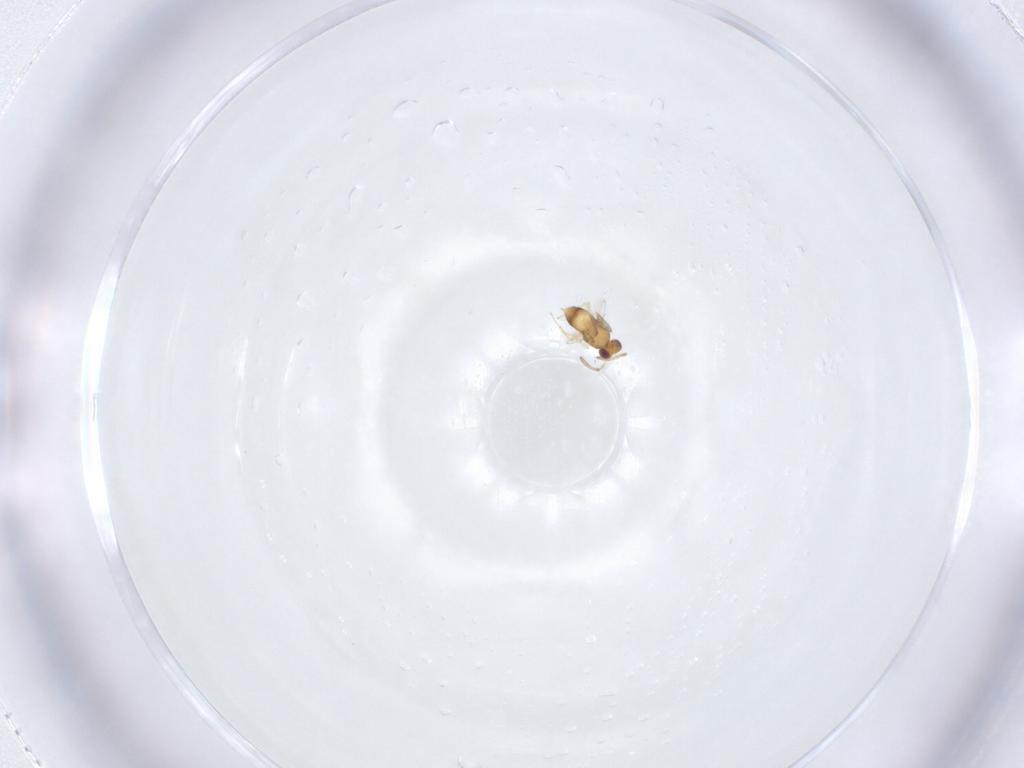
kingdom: Animalia
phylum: Arthropoda
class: Insecta
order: Hymenoptera
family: Aphelinidae
